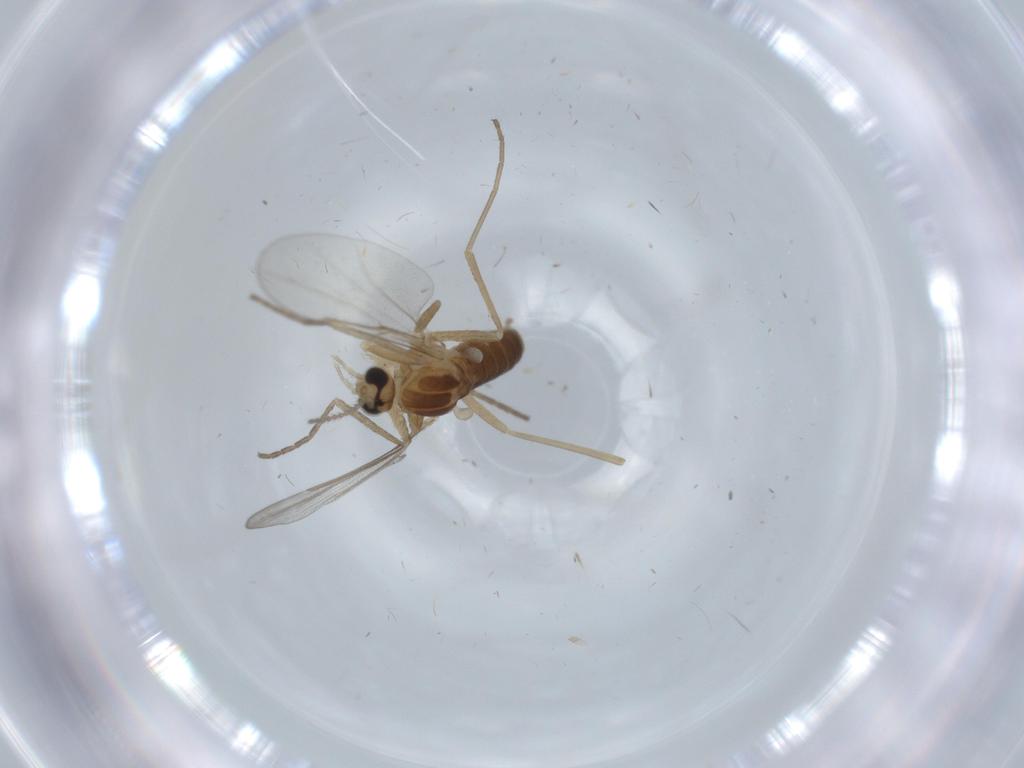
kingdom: Animalia
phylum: Arthropoda
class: Insecta
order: Diptera
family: Cecidomyiidae
